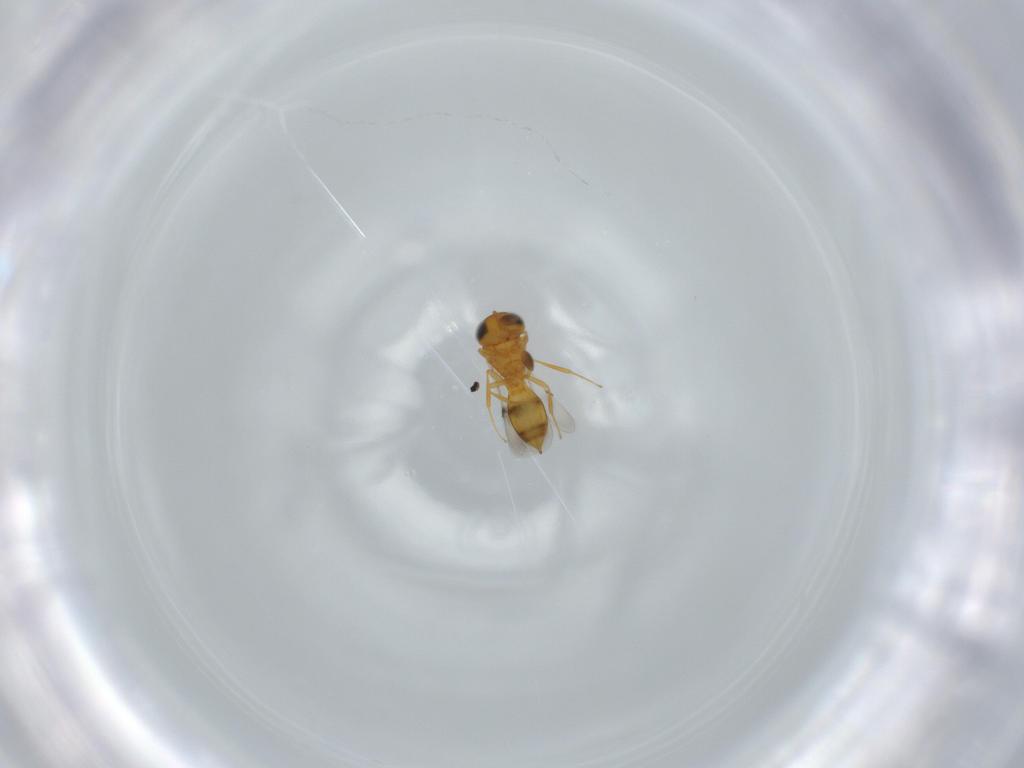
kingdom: Animalia
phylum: Arthropoda
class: Insecta
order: Hymenoptera
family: Scelionidae
